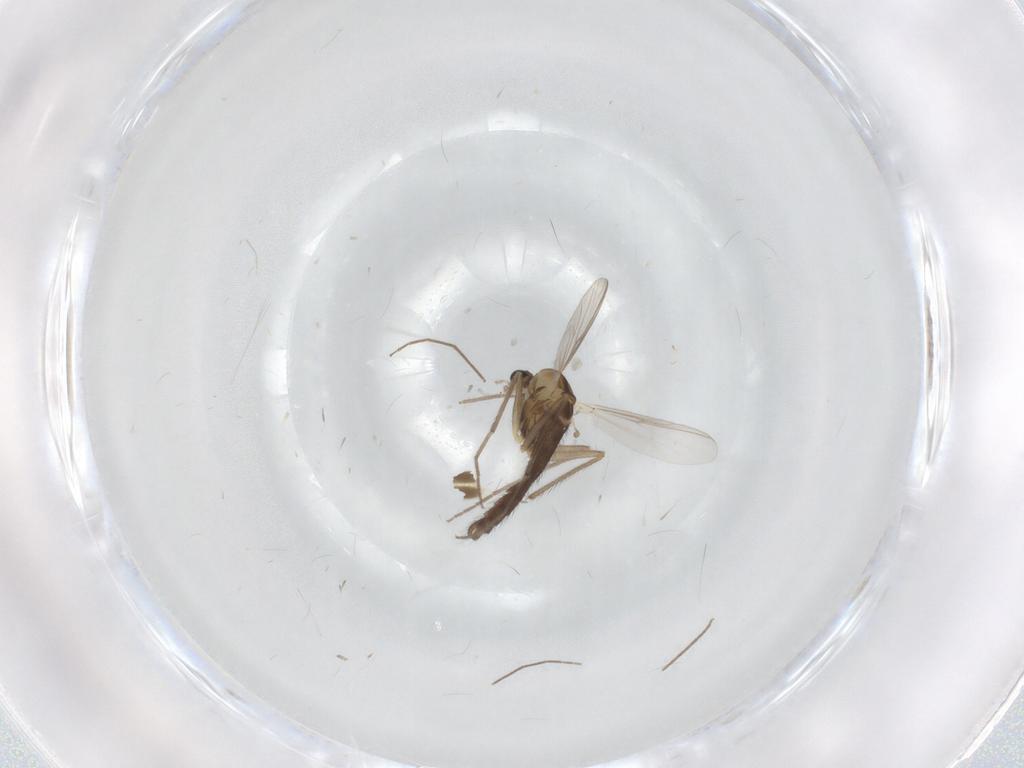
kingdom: Animalia
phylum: Arthropoda
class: Insecta
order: Diptera
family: Chironomidae
